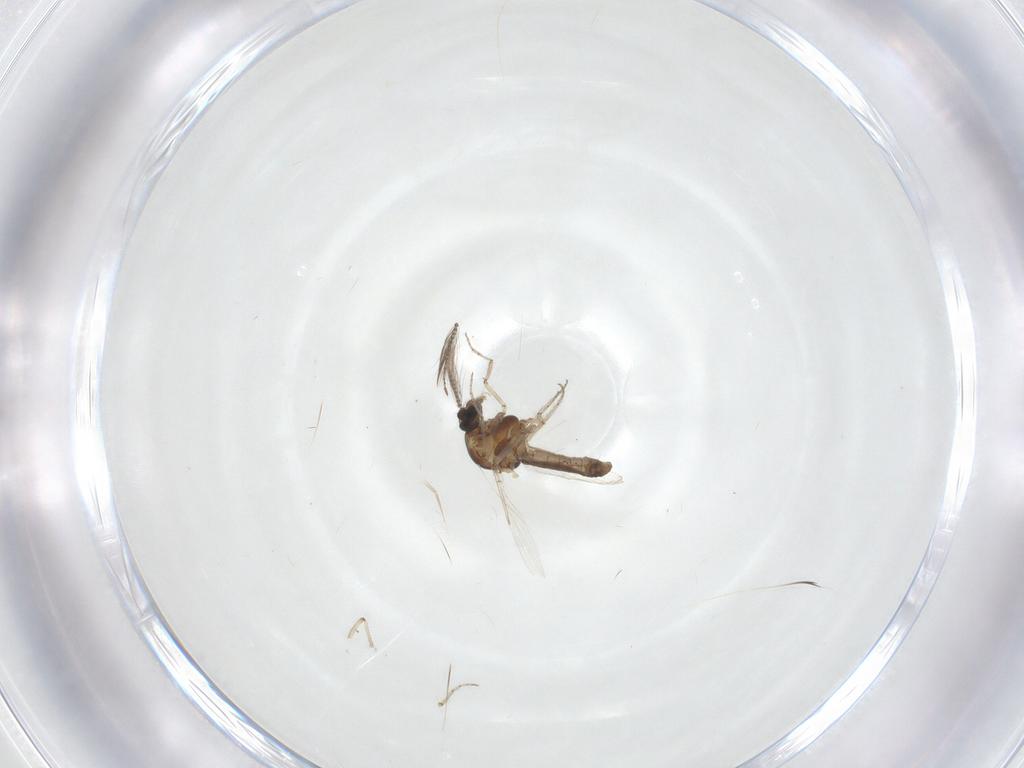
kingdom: Animalia
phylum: Arthropoda
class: Insecta
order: Diptera
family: Ceratopogonidae
